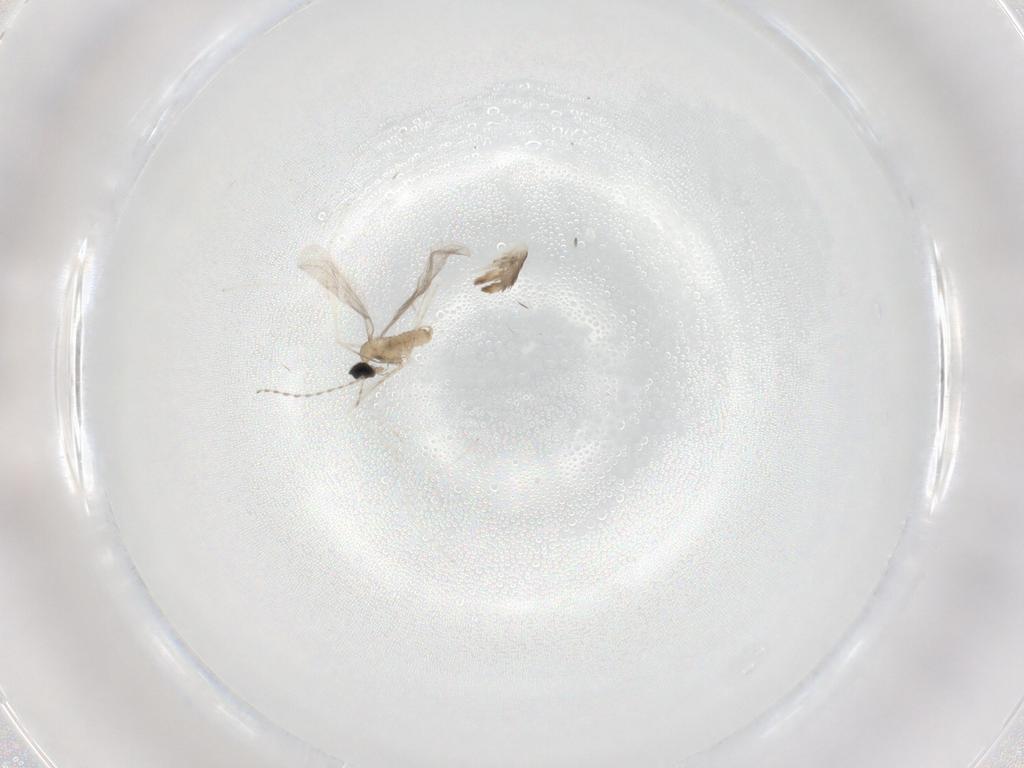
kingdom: Animalia
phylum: Arthropoda
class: Insecta
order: Diptera
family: Cecidomyiidae
